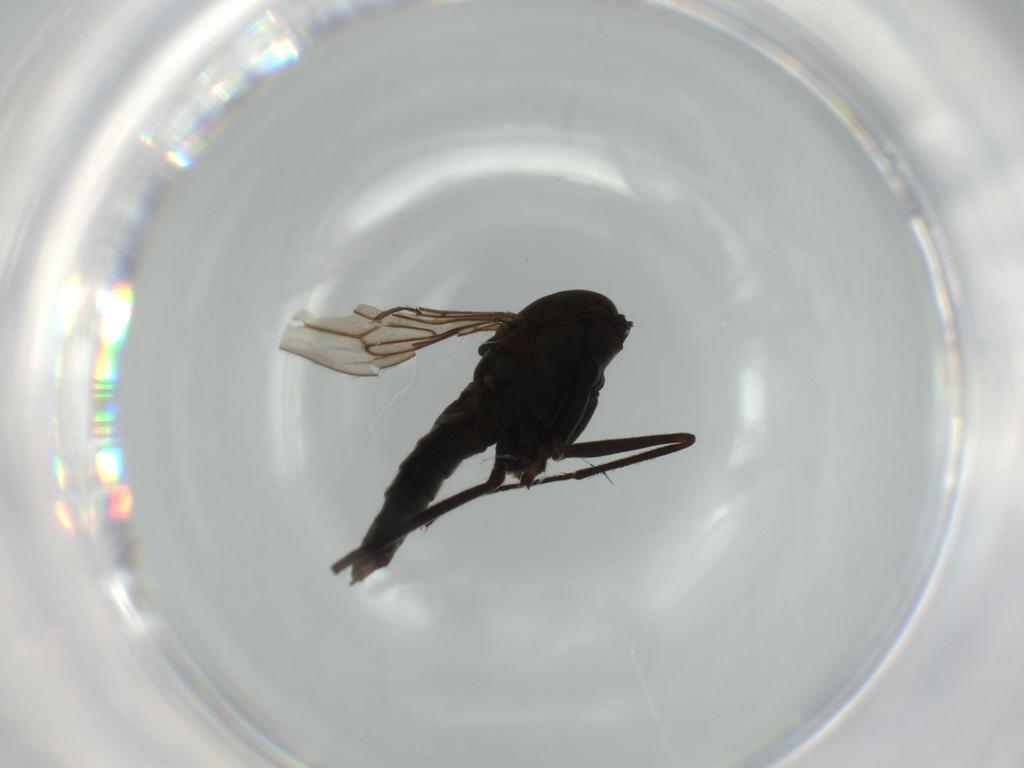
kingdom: Animalia
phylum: Arthropoda
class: Insecta
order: Diptera
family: Empididae
